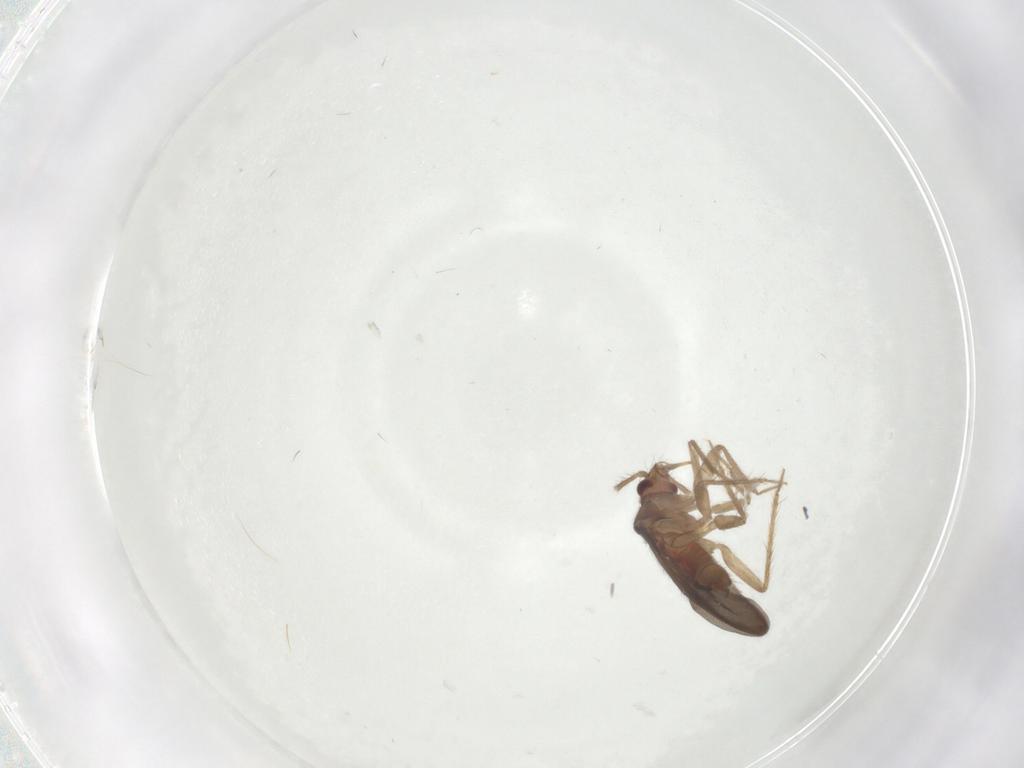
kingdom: Animalia
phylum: Arthropoda
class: Insecta
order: Hemiptera
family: Ceratocombidae
